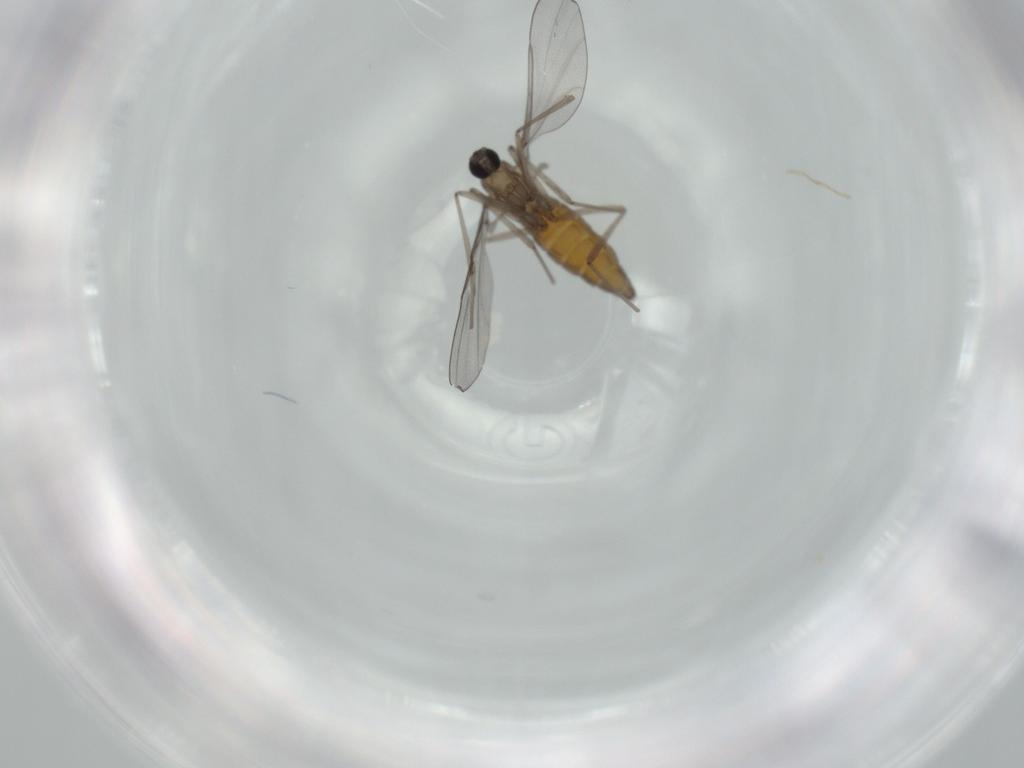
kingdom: Animalia
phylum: Arthropoda
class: Insecta
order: Diptera
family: Cecidomyiidae
